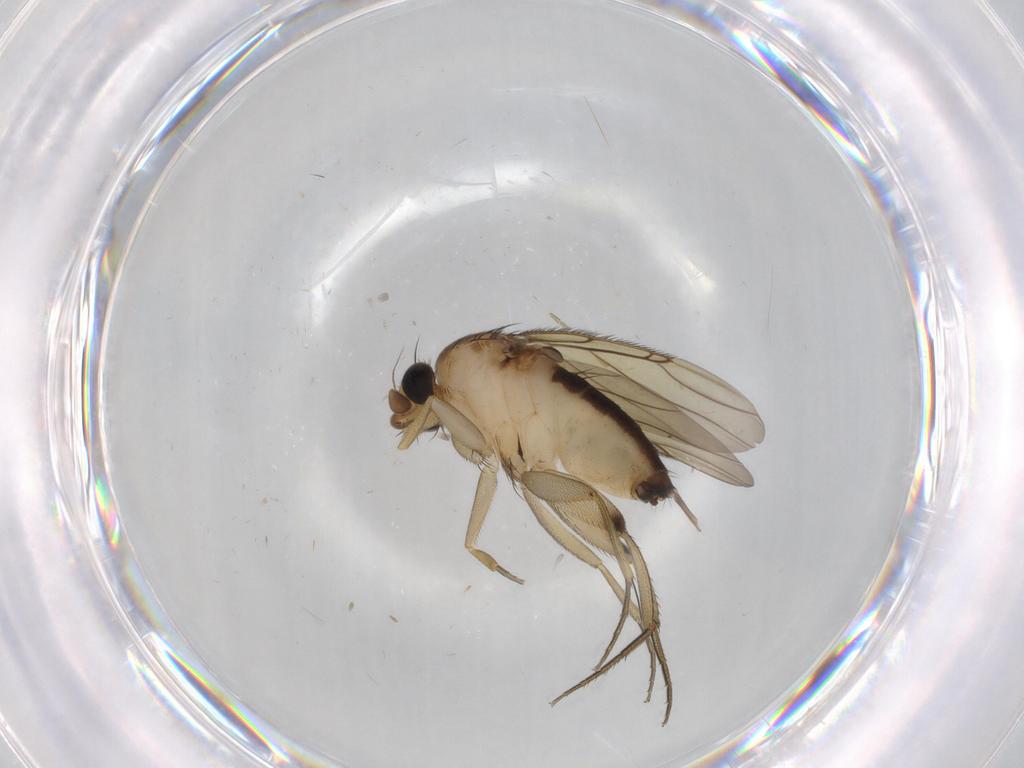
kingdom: Animalia
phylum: Arthropoda
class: Insecta
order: Diptera
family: Phoridae
